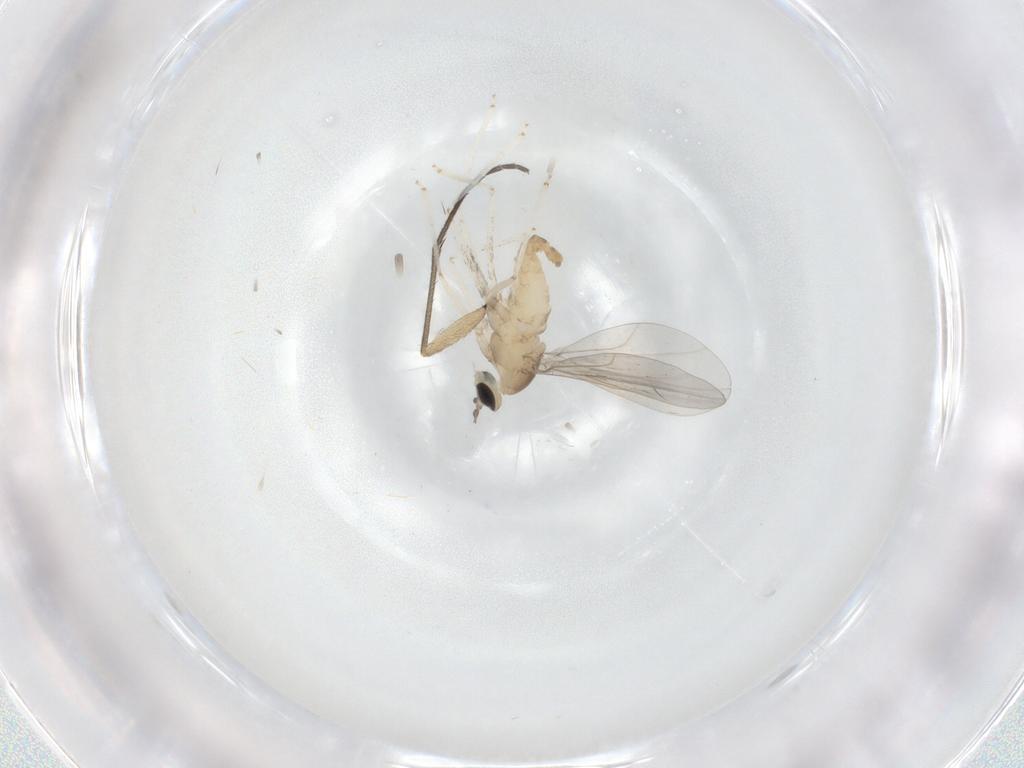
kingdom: Animalia
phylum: Arthropoda
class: Insecta
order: Diptera
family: Cecidomyiidae
